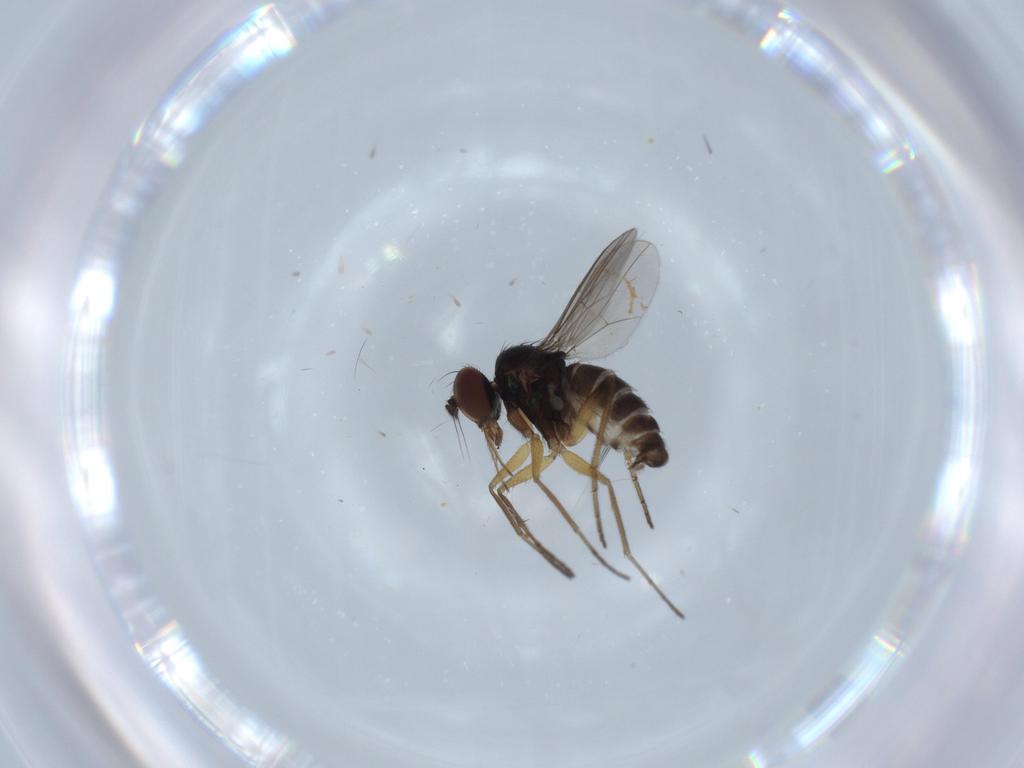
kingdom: Animalia
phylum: Arthropoda
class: Insecta
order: Diptera
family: Dolichopodidae
